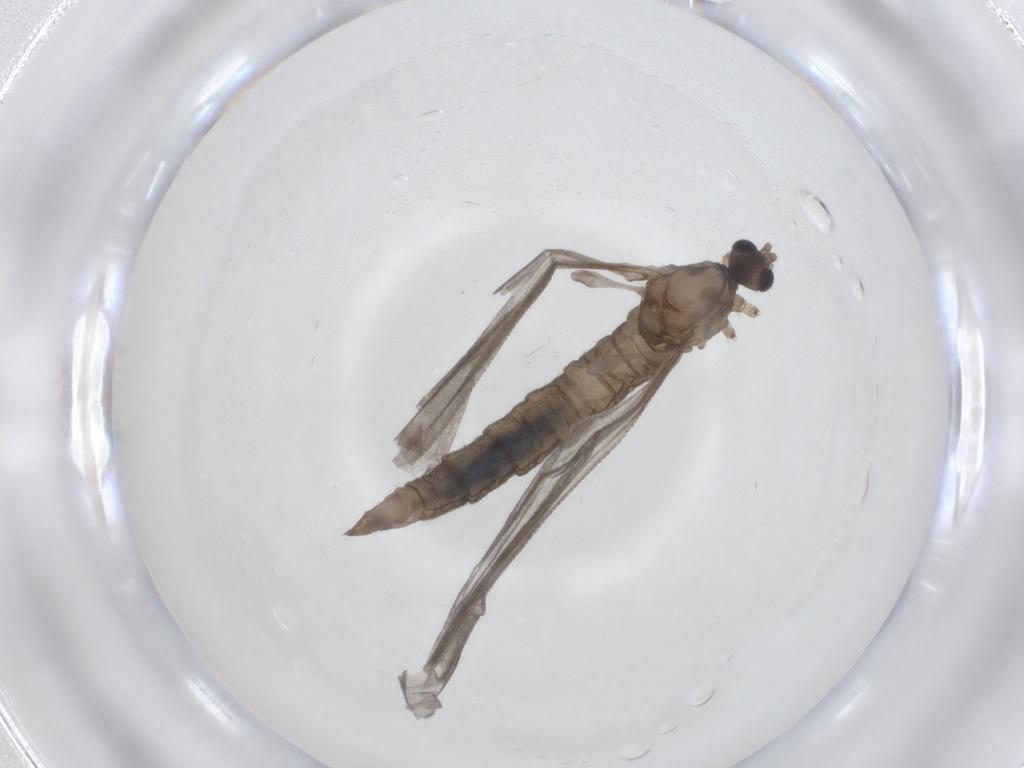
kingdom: Animalia
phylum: Arthropoda
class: Insecta
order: Diptera
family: Limoniidae
